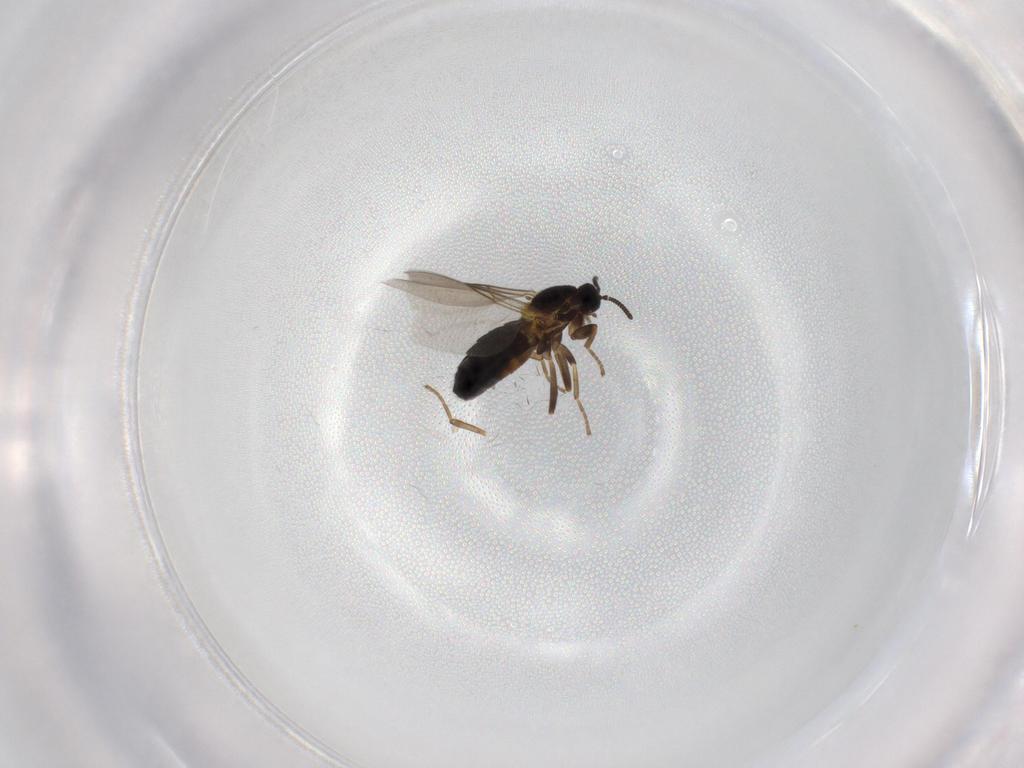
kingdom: Animalia
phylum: Arthropoda
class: Insecta
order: Diptera
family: Scatopsidae
